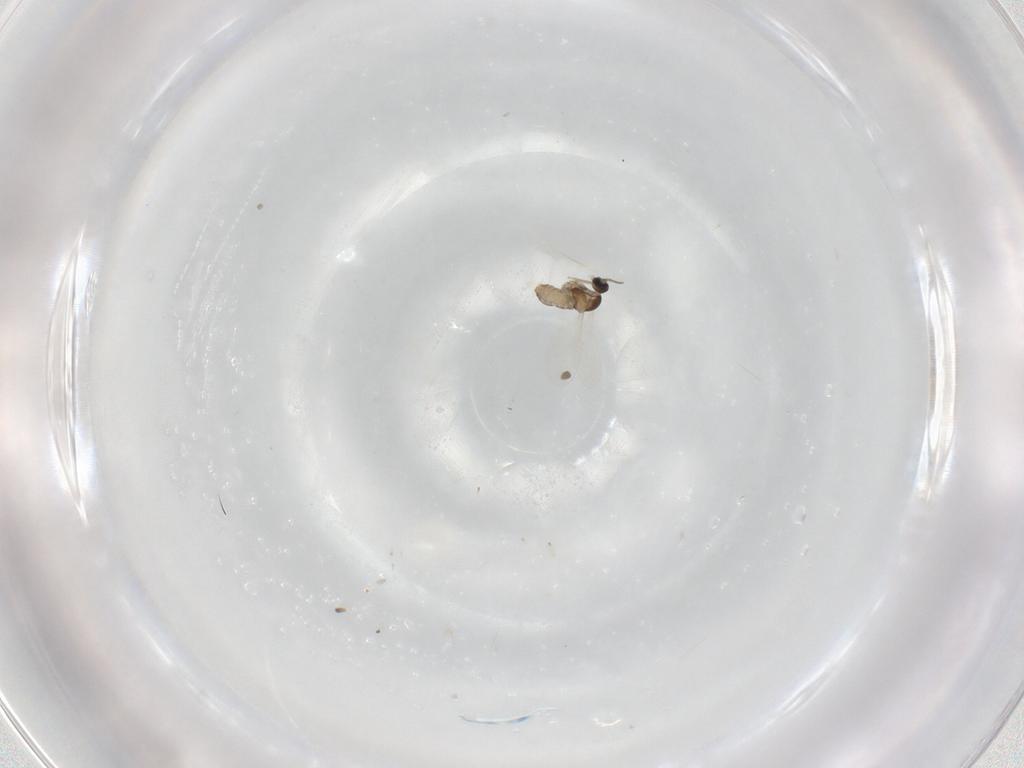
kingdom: Animalia
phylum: Arthropoda
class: Insecta
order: Diptera
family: Cecidomyiidae
